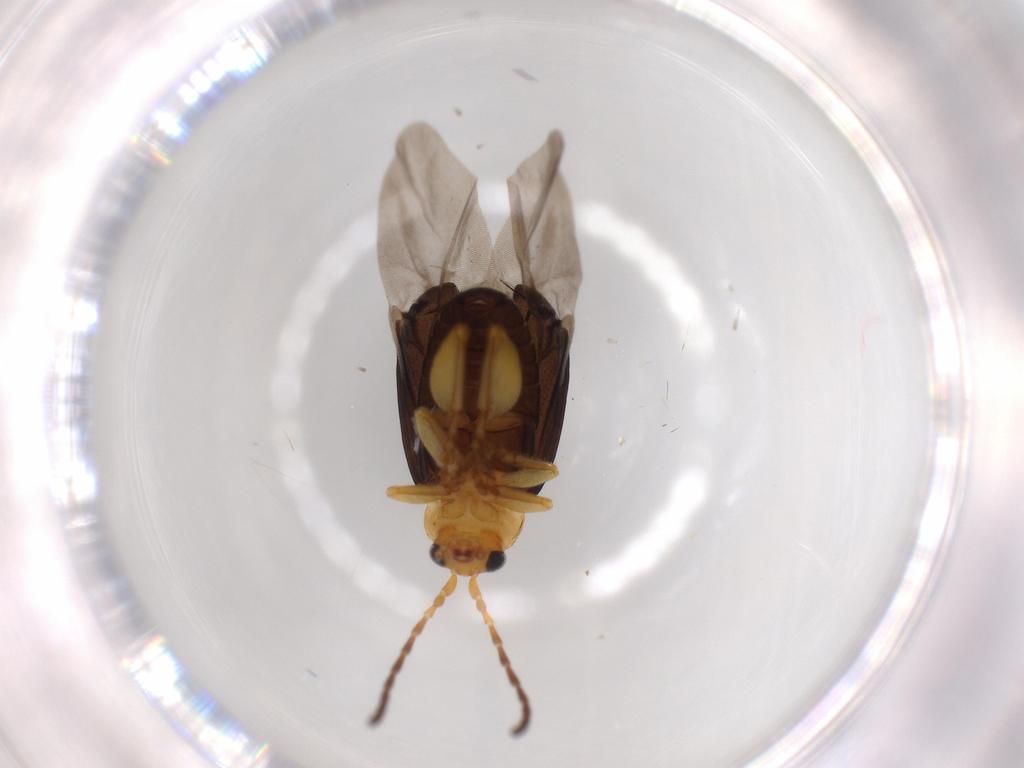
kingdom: Animalia
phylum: Arthropoda
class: Insecta
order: Coleoptera
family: Chrysomelidae
